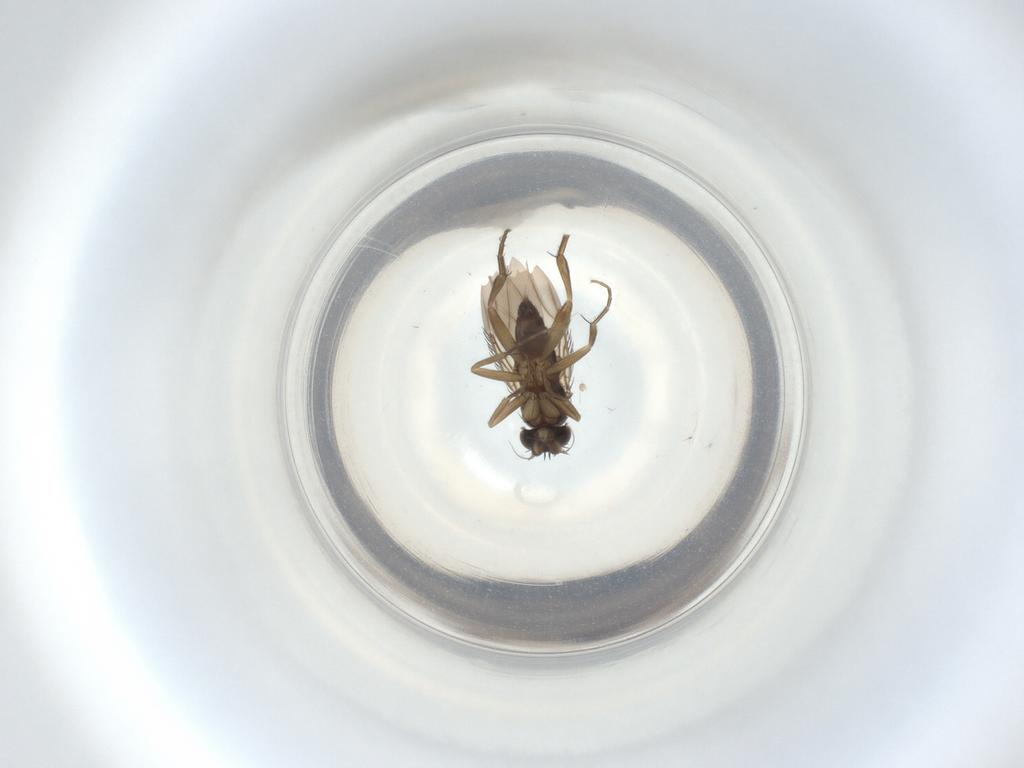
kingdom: Animalia
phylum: Arthropoda
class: Insecta
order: Diptera
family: Phoridae
